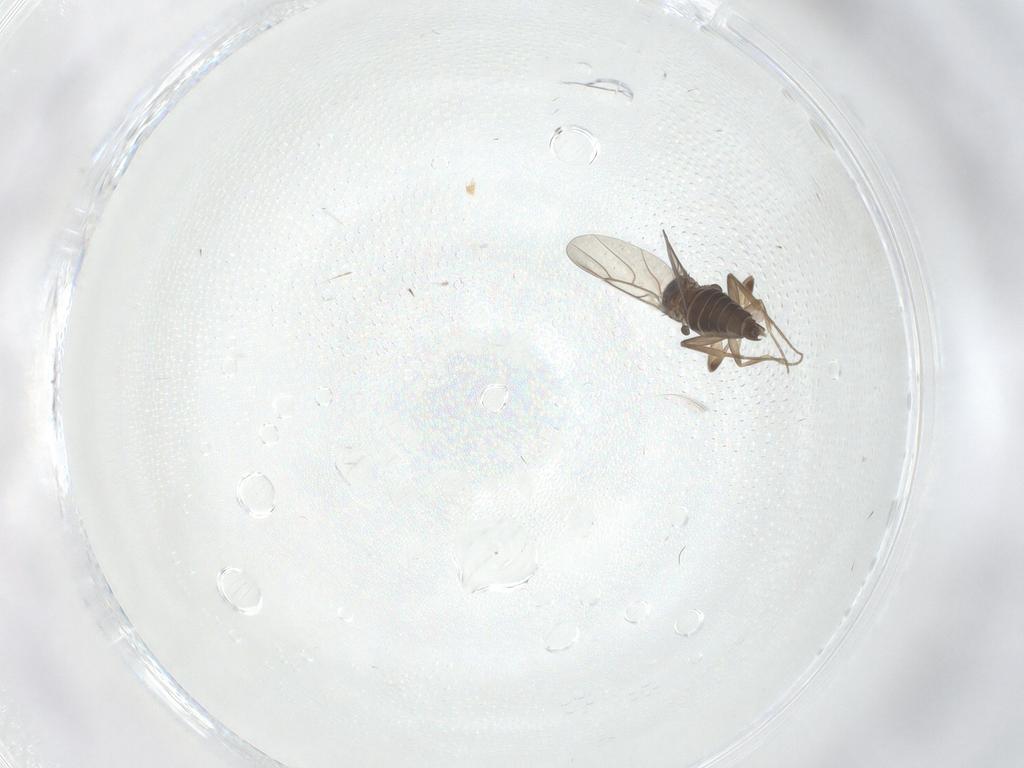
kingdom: Animalia
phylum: Arthropoda
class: Insecta
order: Diptera
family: Phoridae
